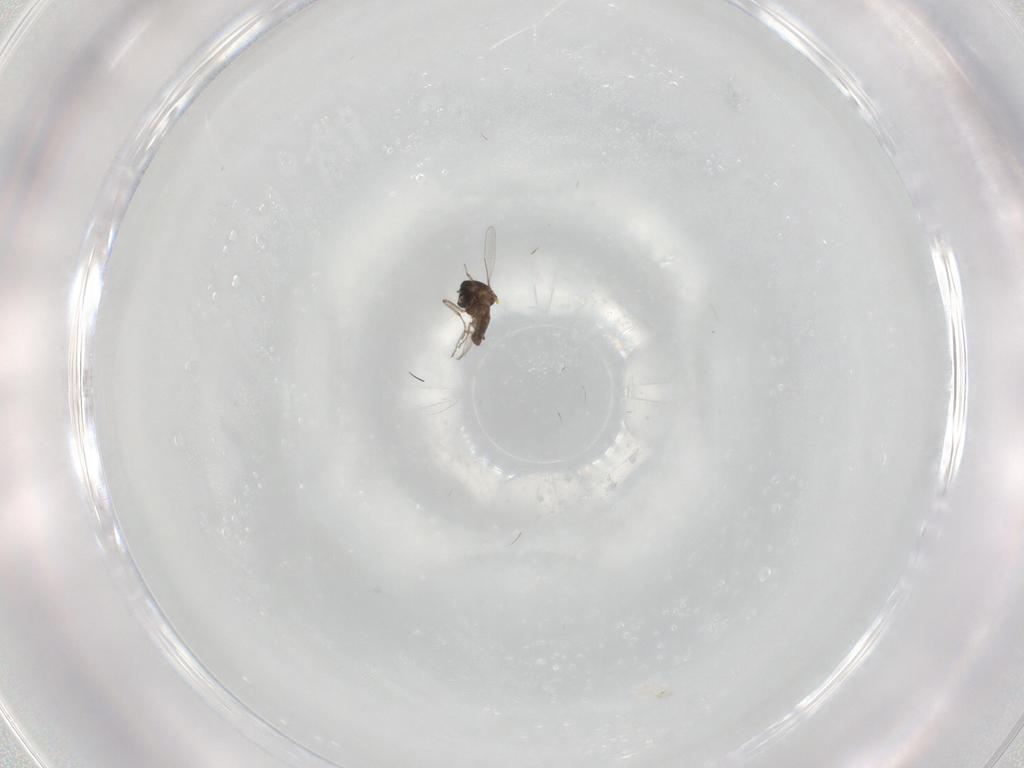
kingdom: Animalia
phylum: Arthropoda
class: Insecta
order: Diptera
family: Ceratopogonidae
